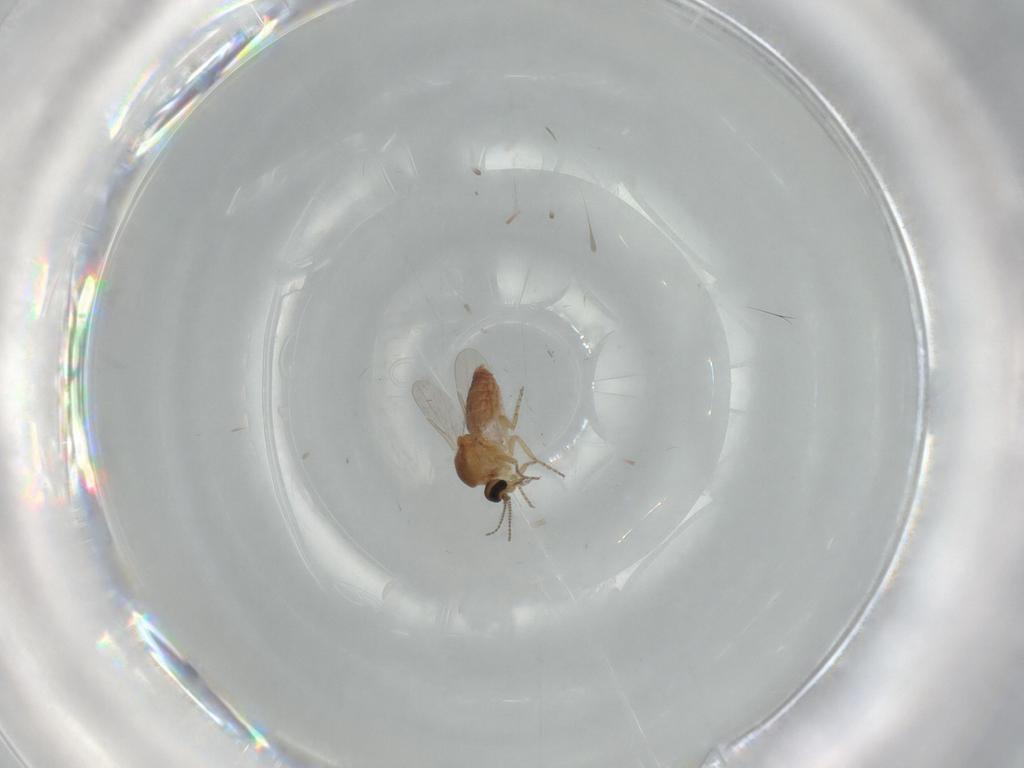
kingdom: Animalia
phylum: Arthropoda
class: Insecta
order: Diptera
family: Ceratopogonidae
